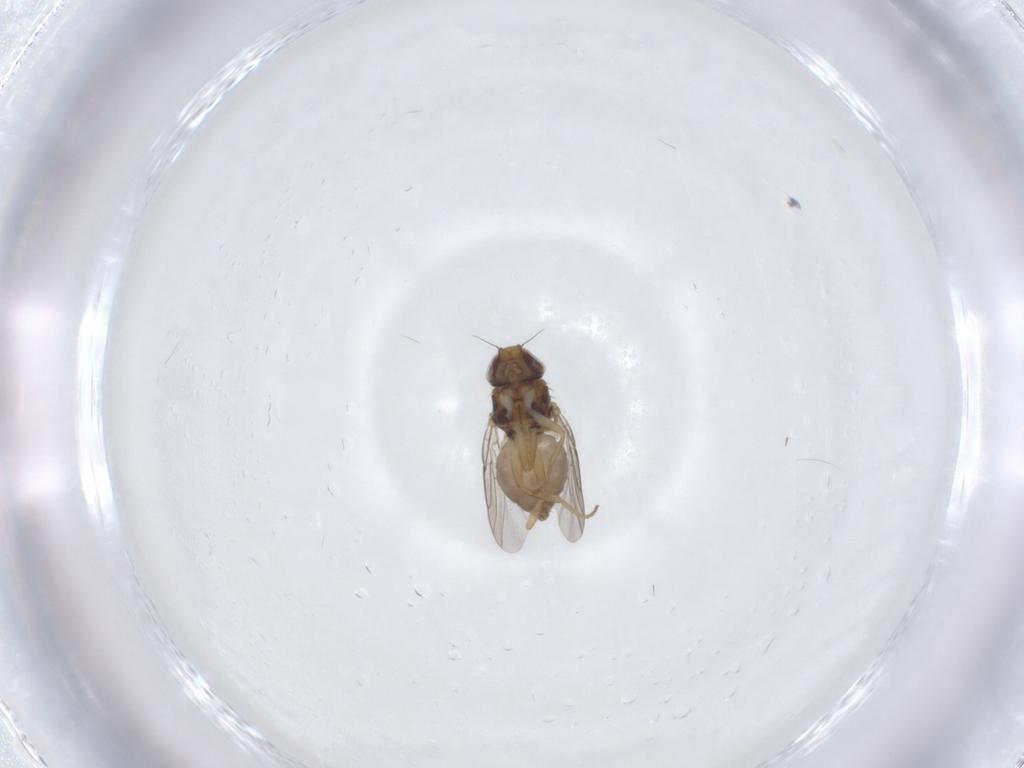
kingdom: Animalia
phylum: Arthropoda
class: Insecta
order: Diptera
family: Chloropidae
